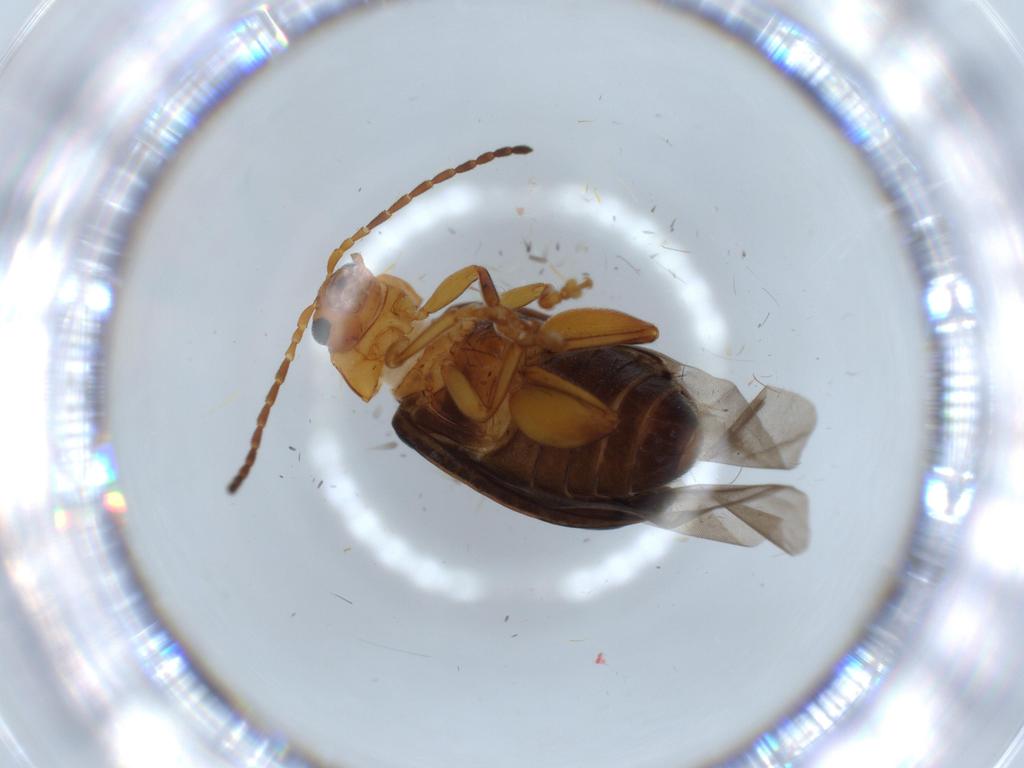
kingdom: Animalia
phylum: Arthropoda
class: Insecta
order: Coleoptera
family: Chrysomelidae
